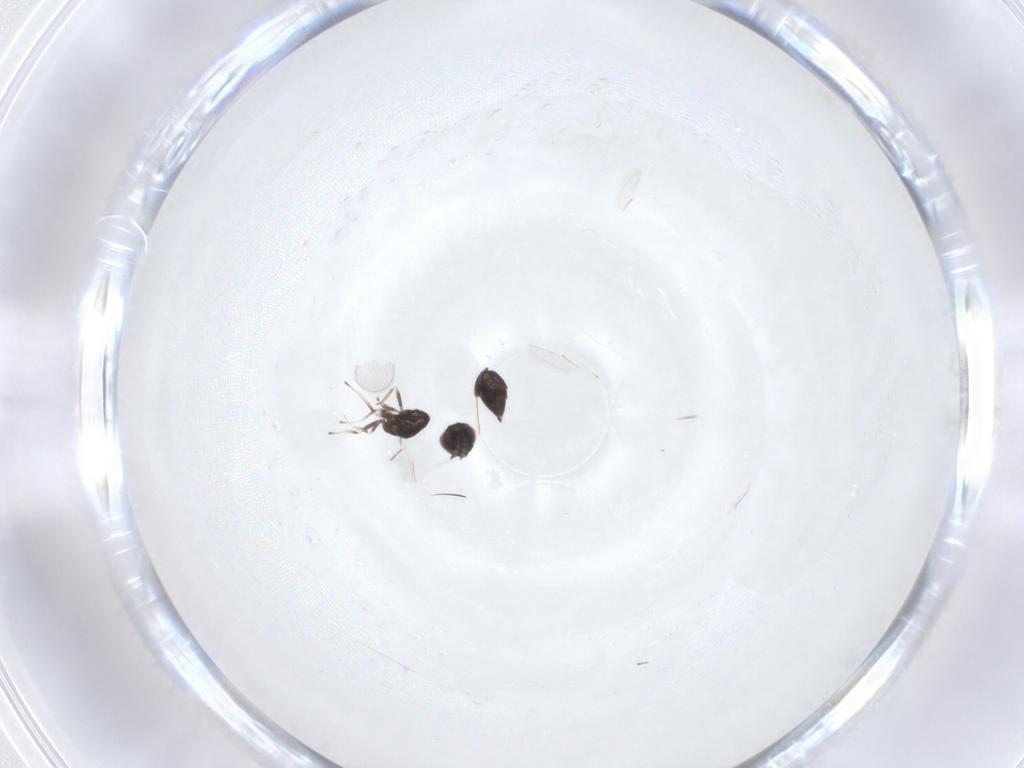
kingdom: Animalia
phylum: Arthropoda
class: Insecta
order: Hymenoptera
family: Eulophidae
